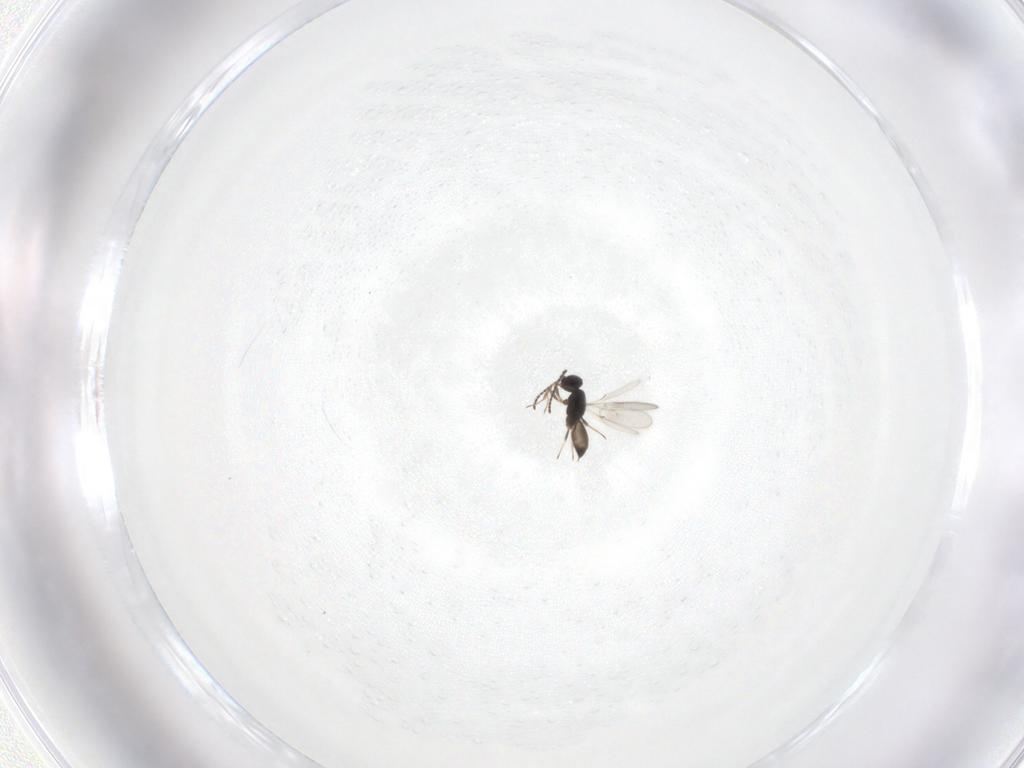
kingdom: Animalia
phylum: Arthropoda
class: Insecta
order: Hymenoptera
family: Scelionidae
